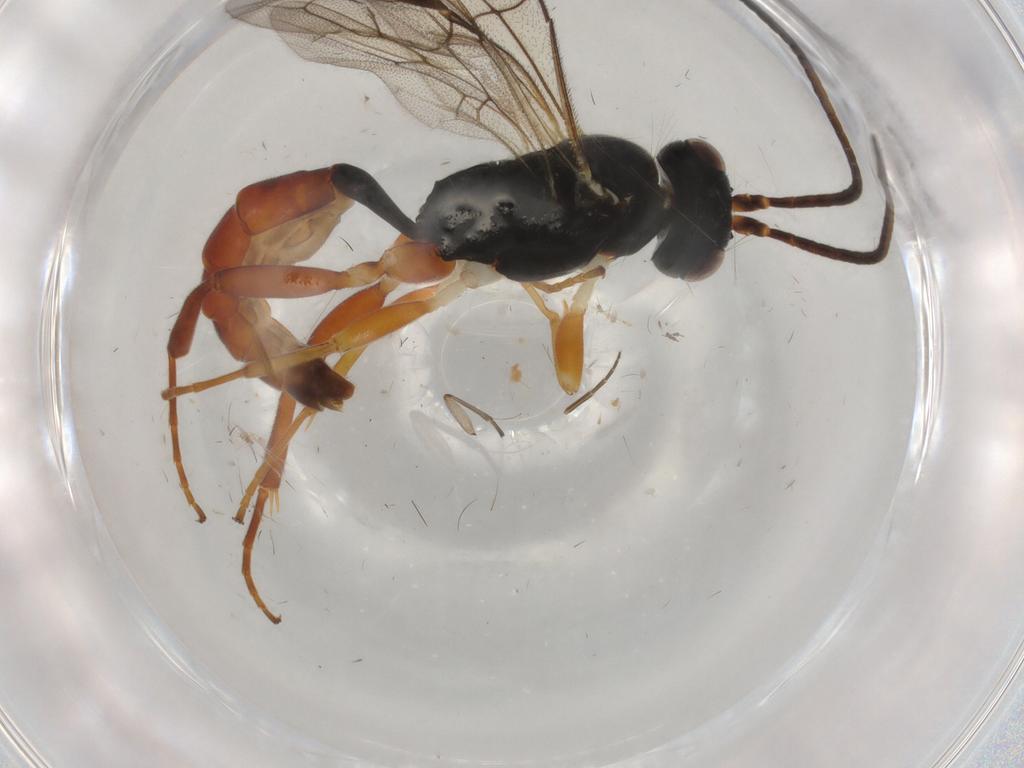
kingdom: Animalia
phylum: Arthropoda
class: Insecta
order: Hymenoptera
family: Ichneumonidae
